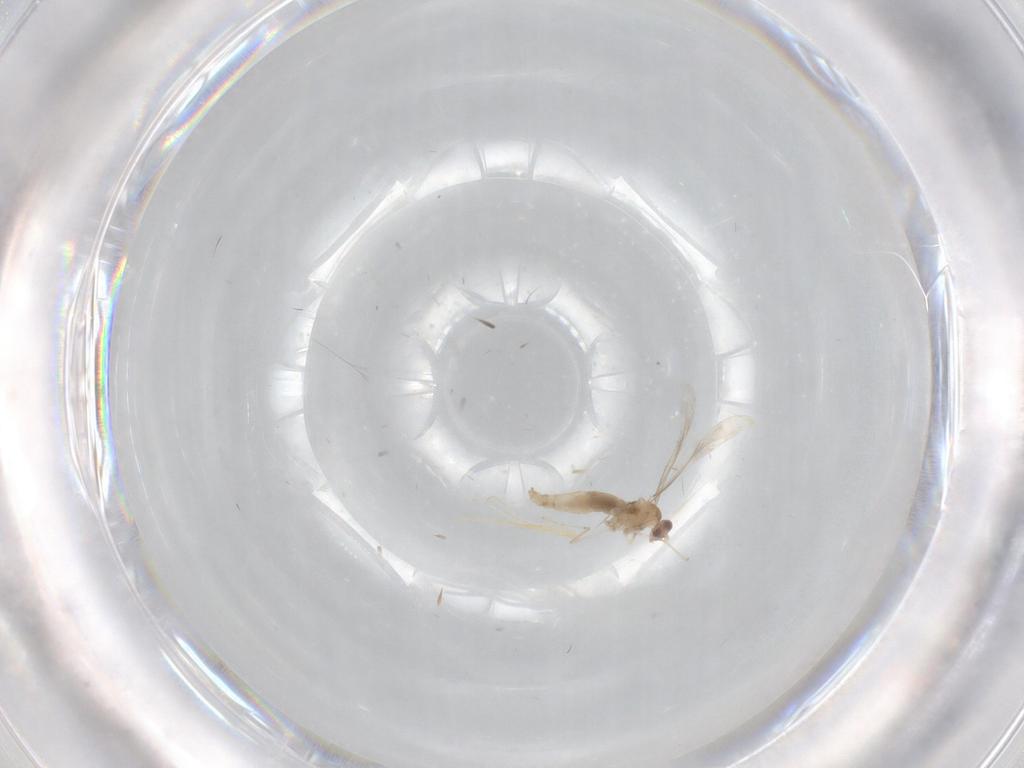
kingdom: Animalia
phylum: Arthropoda
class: Insecta
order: Diptera
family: Cecidomyiidae
